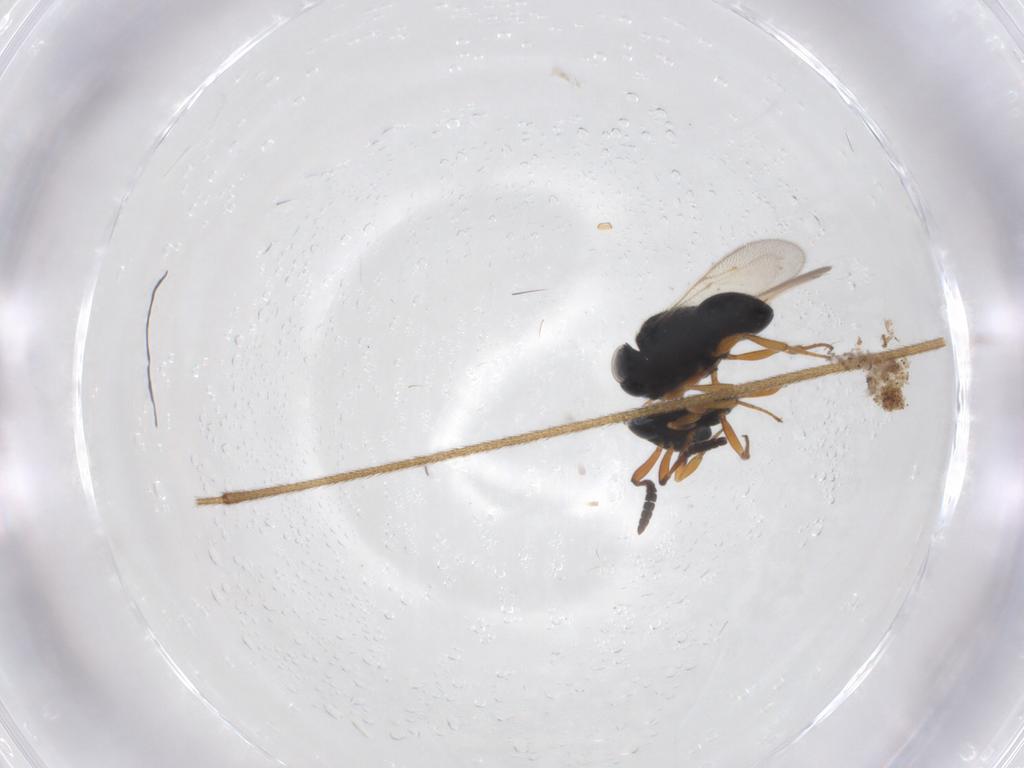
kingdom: Animalia
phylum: Arthropoda
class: Insecta
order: Hymenoptera
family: Scelionidae
